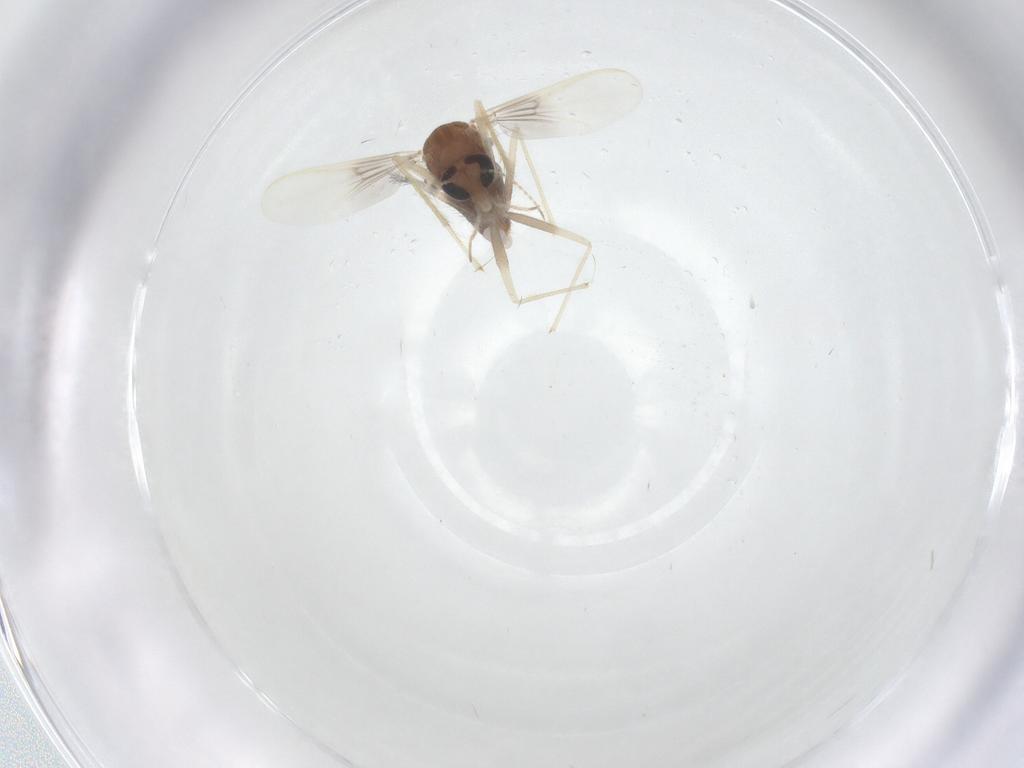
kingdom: Animalia
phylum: Arthropoda
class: Insecta
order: Diptera
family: Chironomidae
